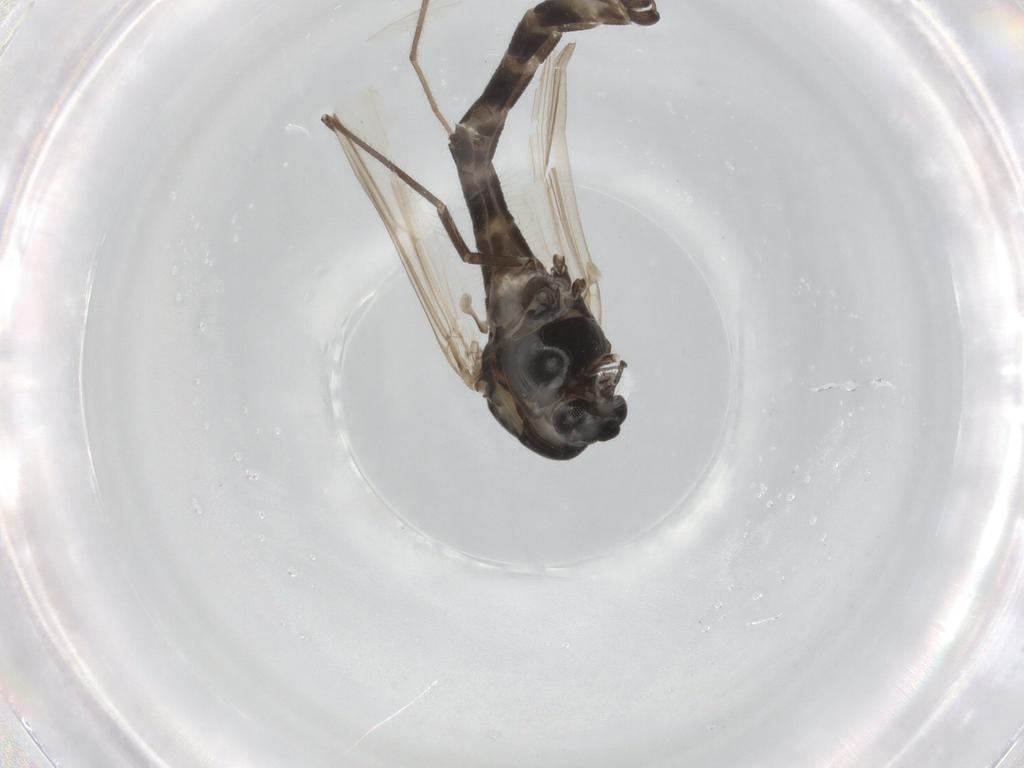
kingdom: Animalia
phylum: Arthropoda
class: Insecta
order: Diptera
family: Chironomidae
